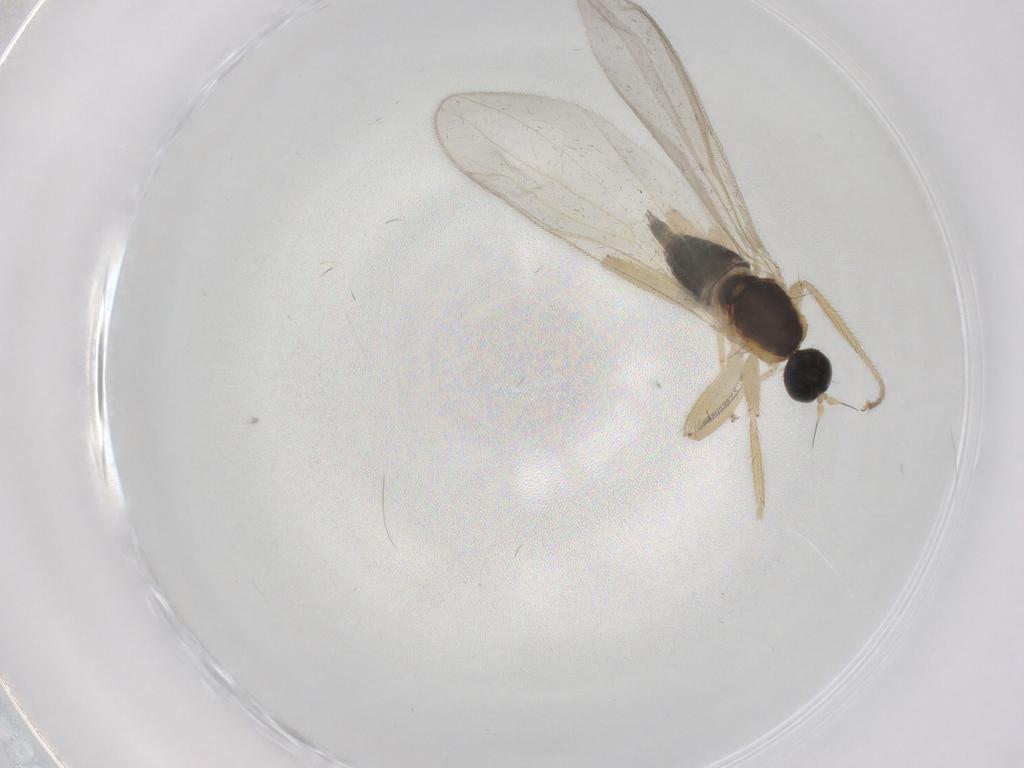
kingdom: Animalia
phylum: Arthropoda
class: Insecta
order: Diptera
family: Hybotidae
